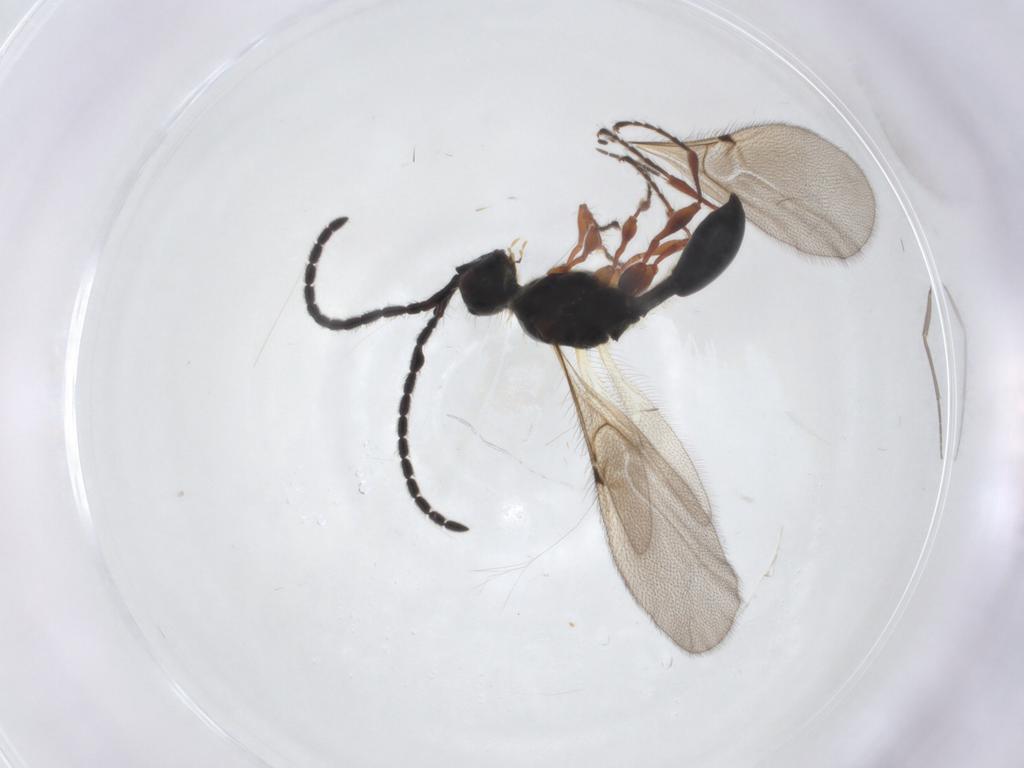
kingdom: Animalia
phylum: Arthropoda
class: Insecta
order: Hymenoptera
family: Diapriidae
